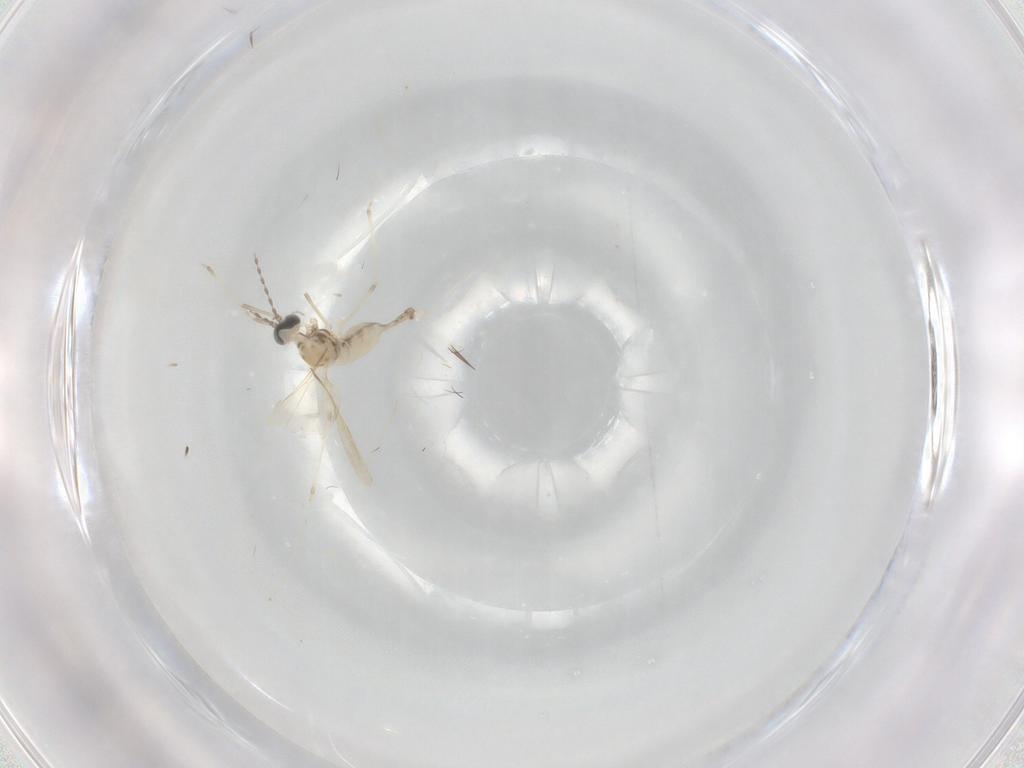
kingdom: Animalia
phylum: Arthropoda
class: Insecta
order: Diptera
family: Cecidomyiidae
